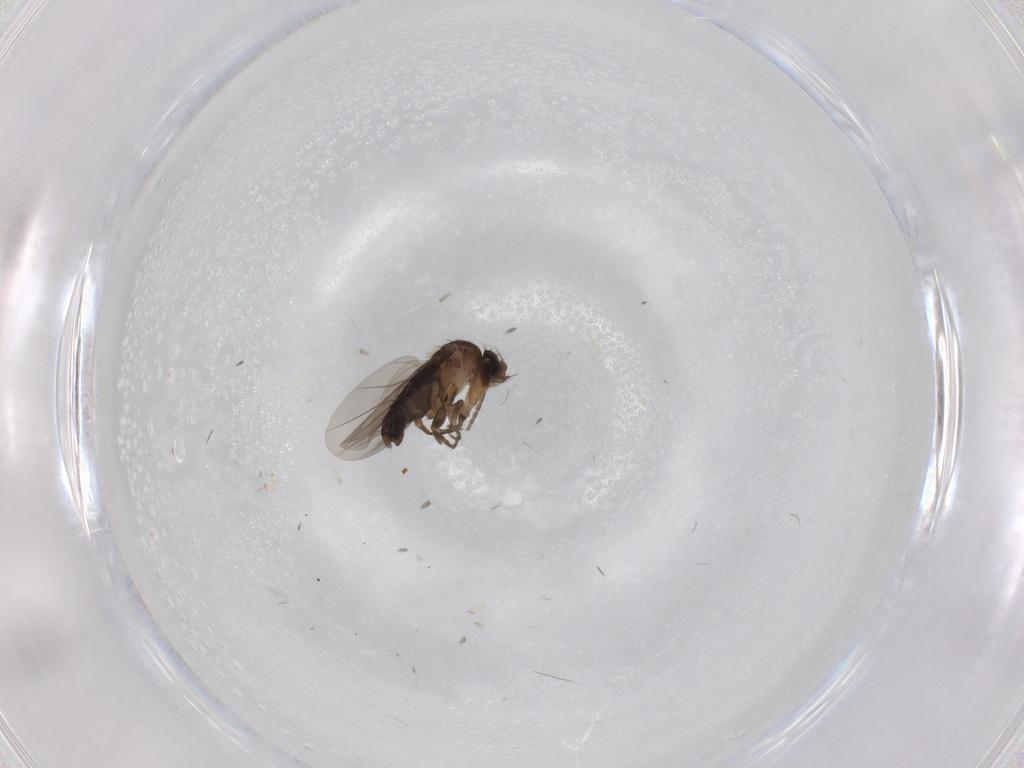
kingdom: Animalia
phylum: Arthropoda
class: Insecta
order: Diptera
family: Phoridae
